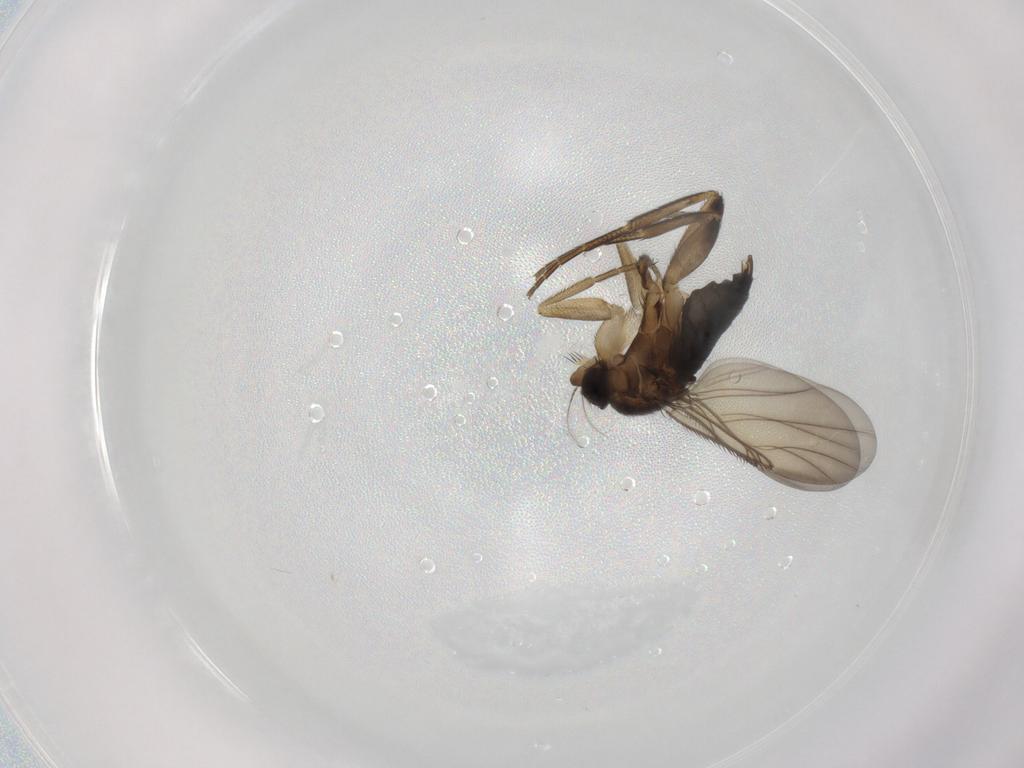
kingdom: Animalia
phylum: Arthropoda
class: Insecta
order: Diptera
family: Phoridae
